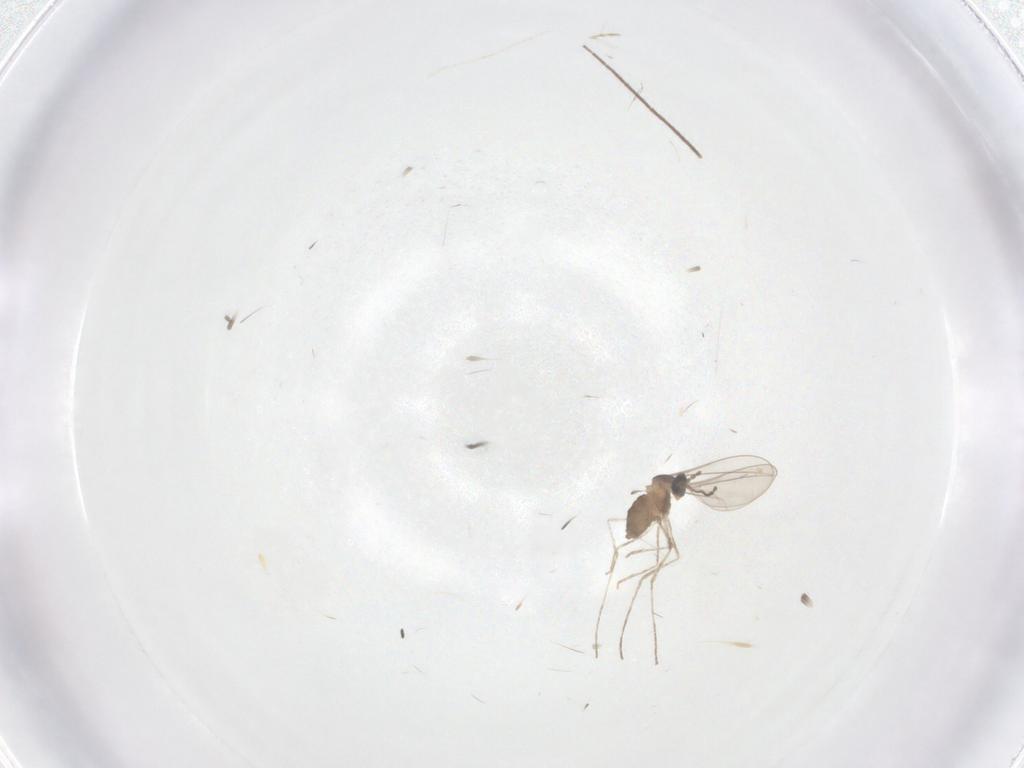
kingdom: Animalia
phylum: Arthropoda
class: Insecta
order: Diptera
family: Cecidomyiidae
